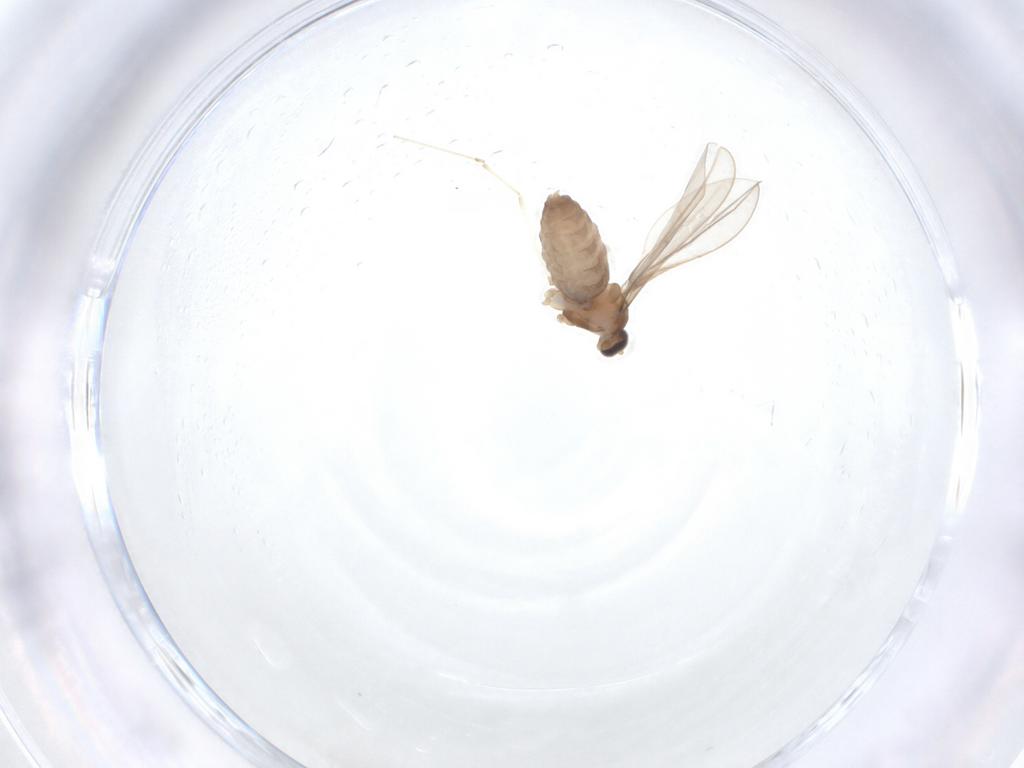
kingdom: Animalia
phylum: Arthropoda
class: Insecta
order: Diptera
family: Cecidomyiidae
